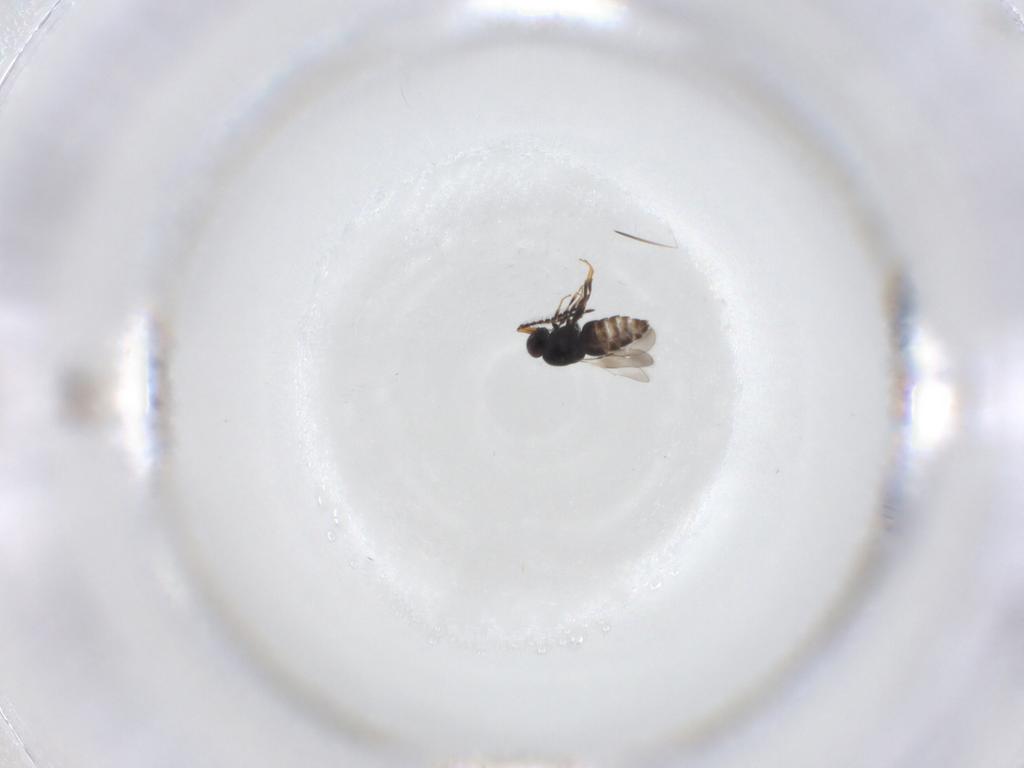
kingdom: Animalia
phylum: Arthropoda
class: Insecta
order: Hymenoptera
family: Ceraphronidae
